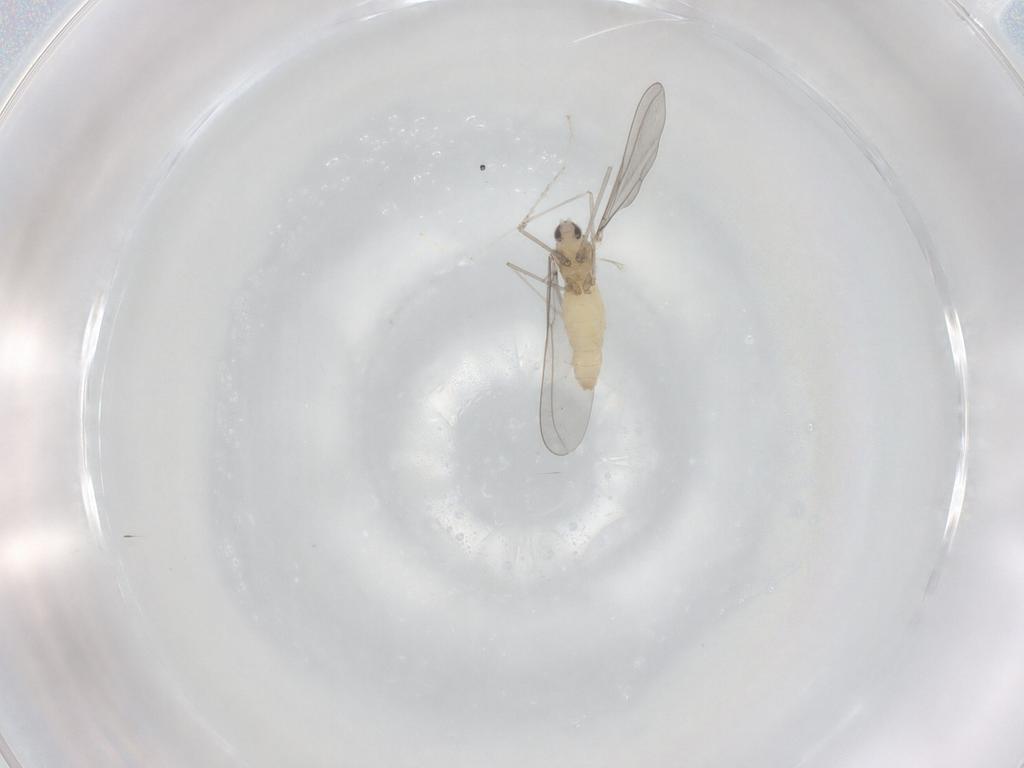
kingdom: Animalia
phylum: Arthropoda
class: Insecta
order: Diptera
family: Cecidomyiidae
